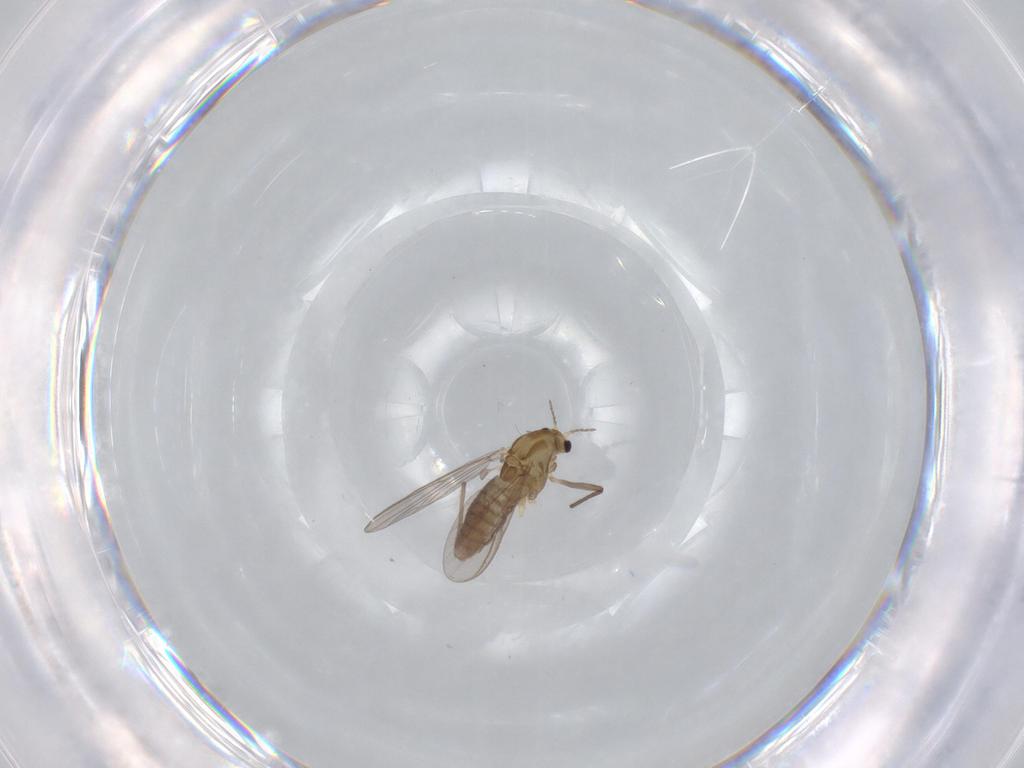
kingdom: Animalia
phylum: Arthropoda
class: Insecta
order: Diptera
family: Chironomidae
